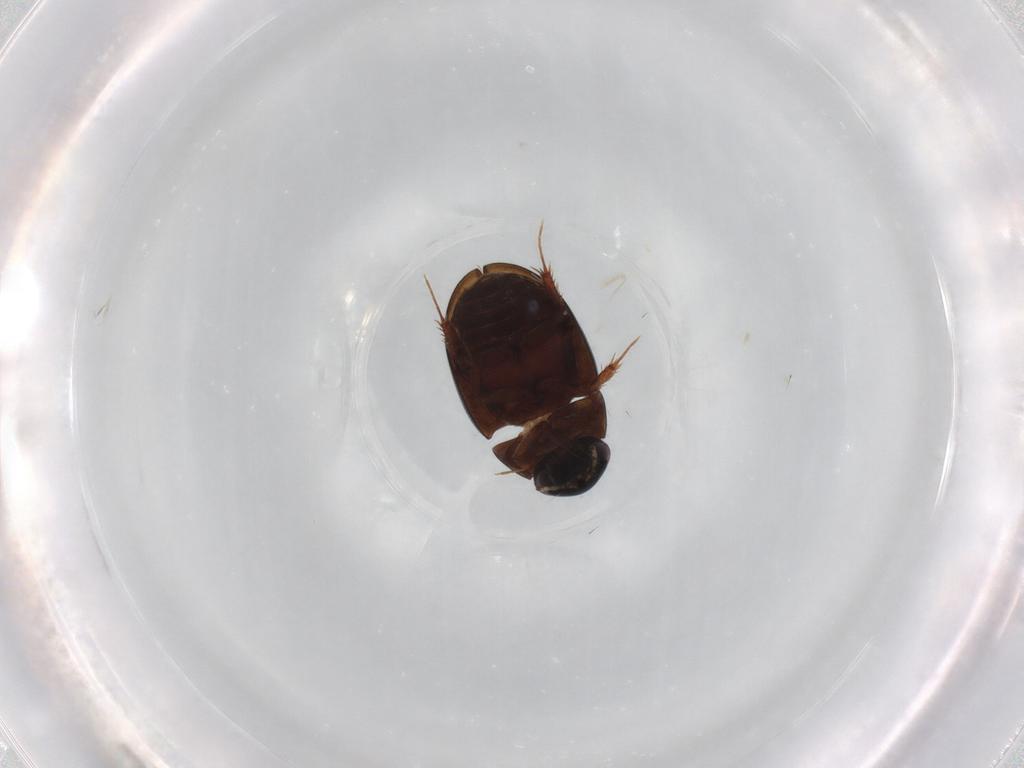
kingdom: Animalia
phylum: Arthropoda
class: Insecta
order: Coleoptera
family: Hydrophilidae
